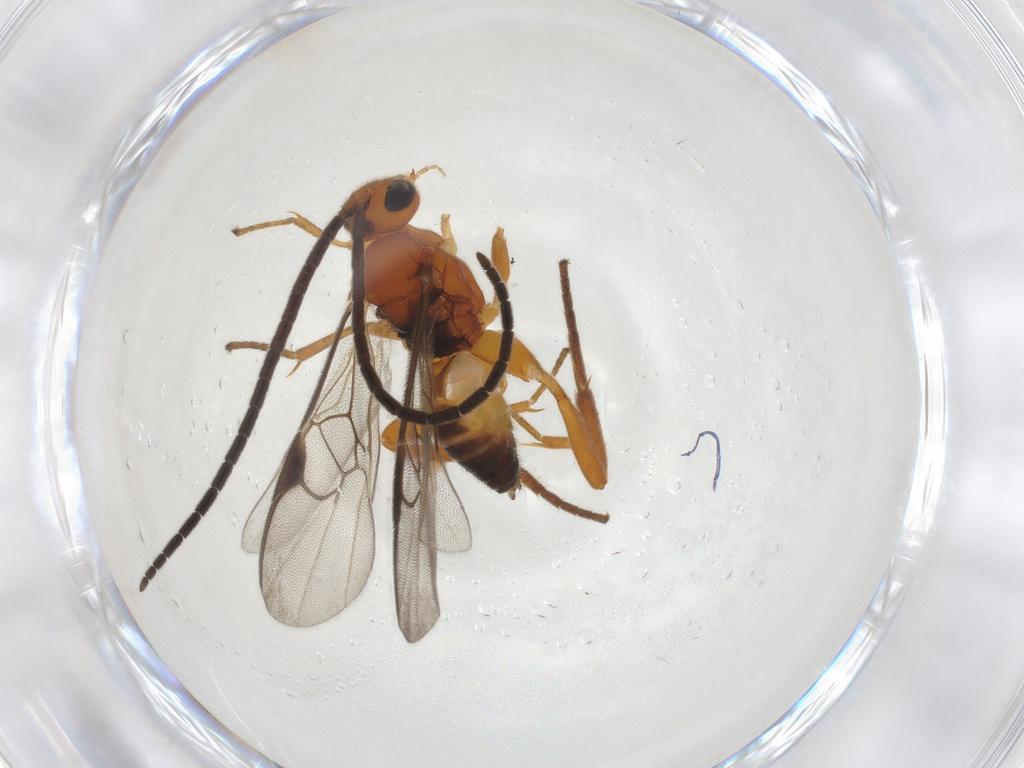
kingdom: Animalia
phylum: Arthropoda
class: Insecta
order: Hymenoptera
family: Braconidae
